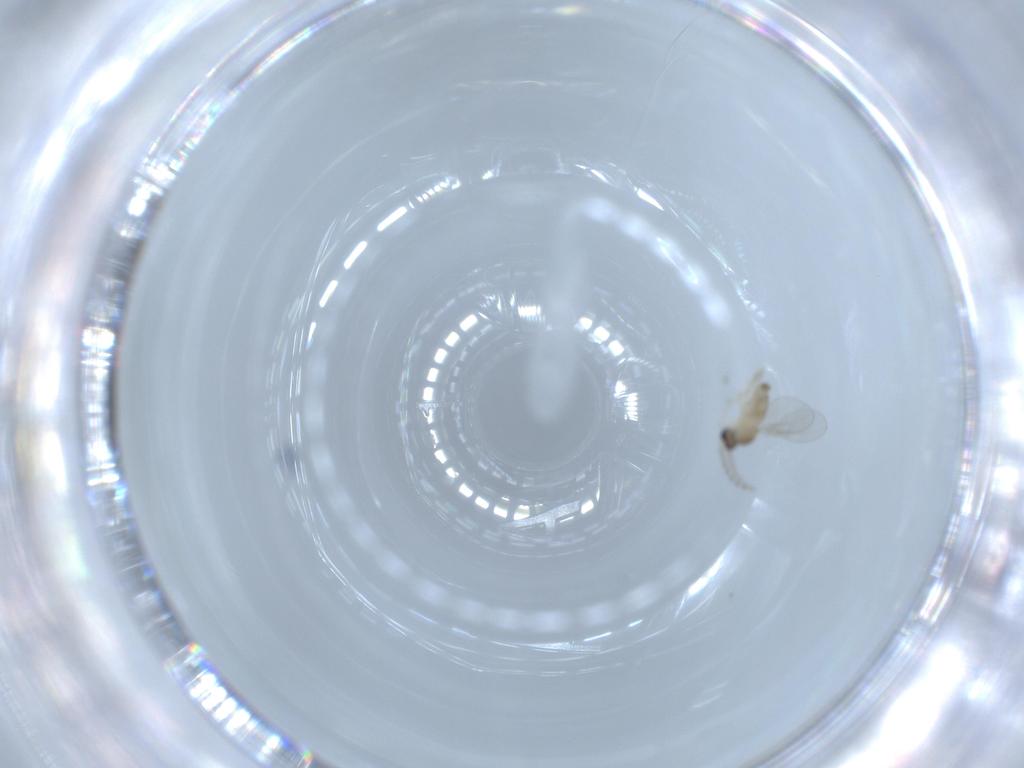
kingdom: Animalia
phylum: Arthropoda
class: Insecta
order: Diptera
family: Cecidomyiidae
